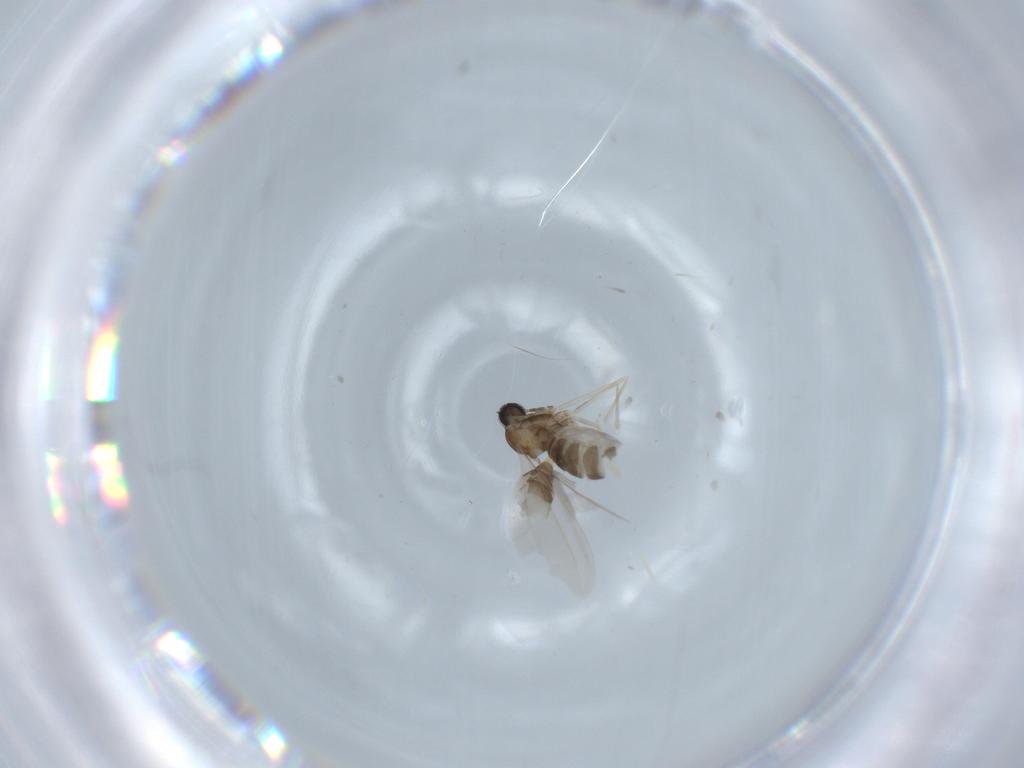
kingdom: Animalia
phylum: Arthropoda
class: Insecta
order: Diptera
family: Cecidomyiidae
